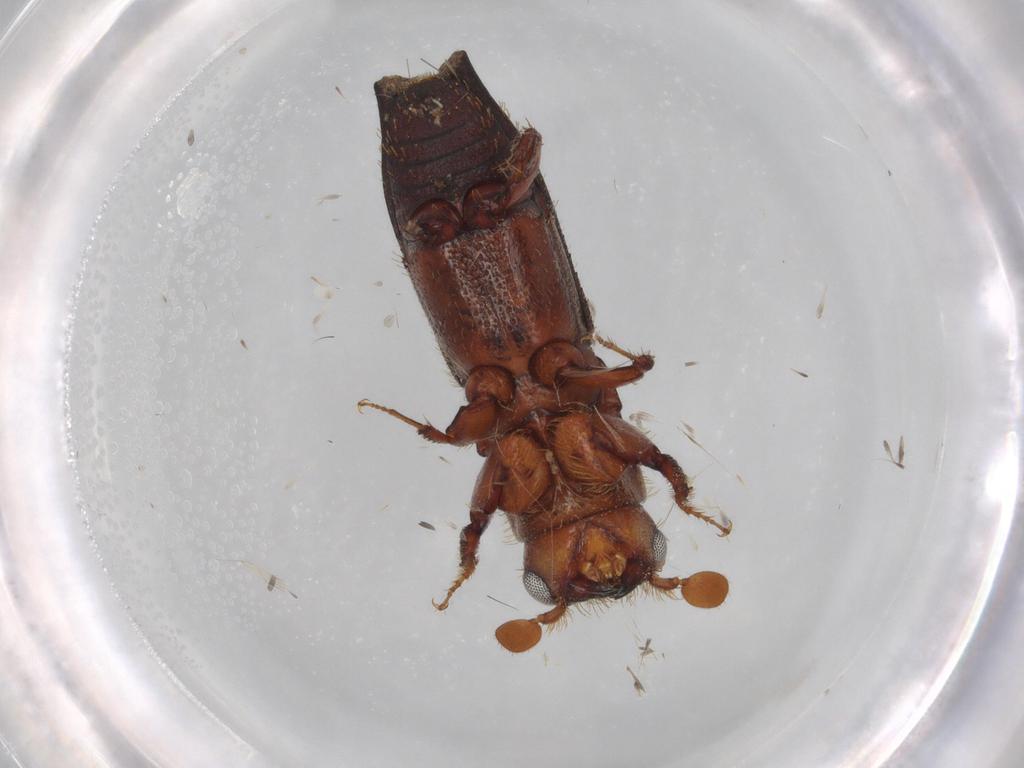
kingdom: Animalia
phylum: Arthropoda
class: Insecta
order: Coleoptera
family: Curculionidae
